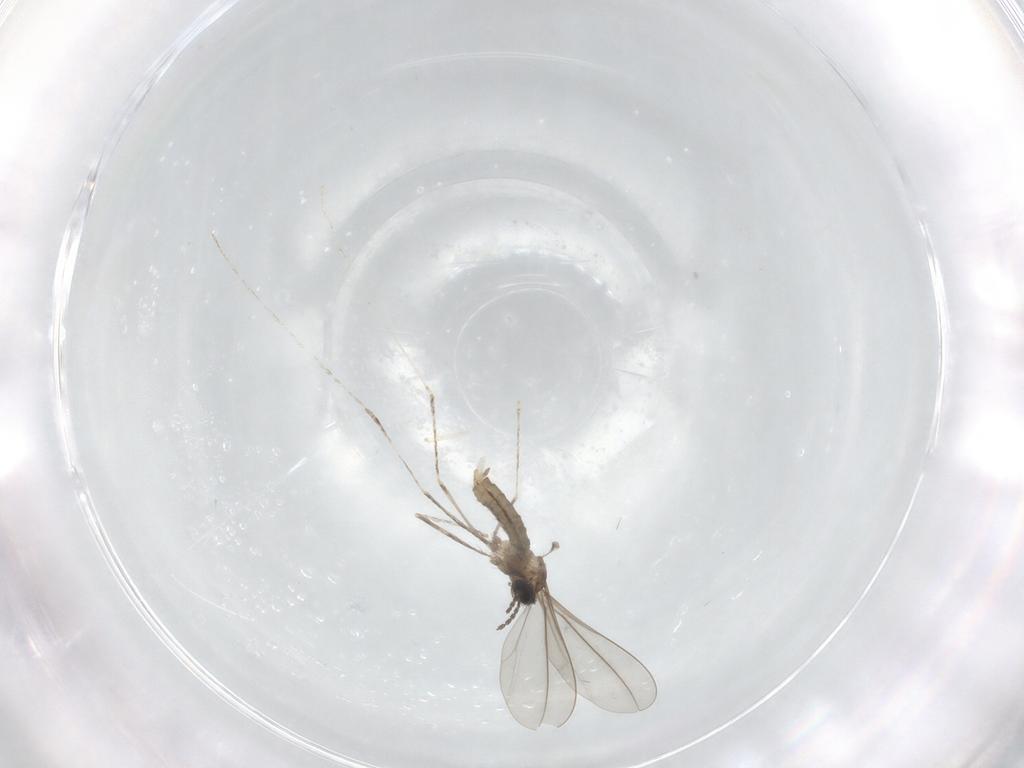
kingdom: Animalia
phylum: Arthropoda
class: Insecta
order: Diptera
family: Cecidomyiidae
